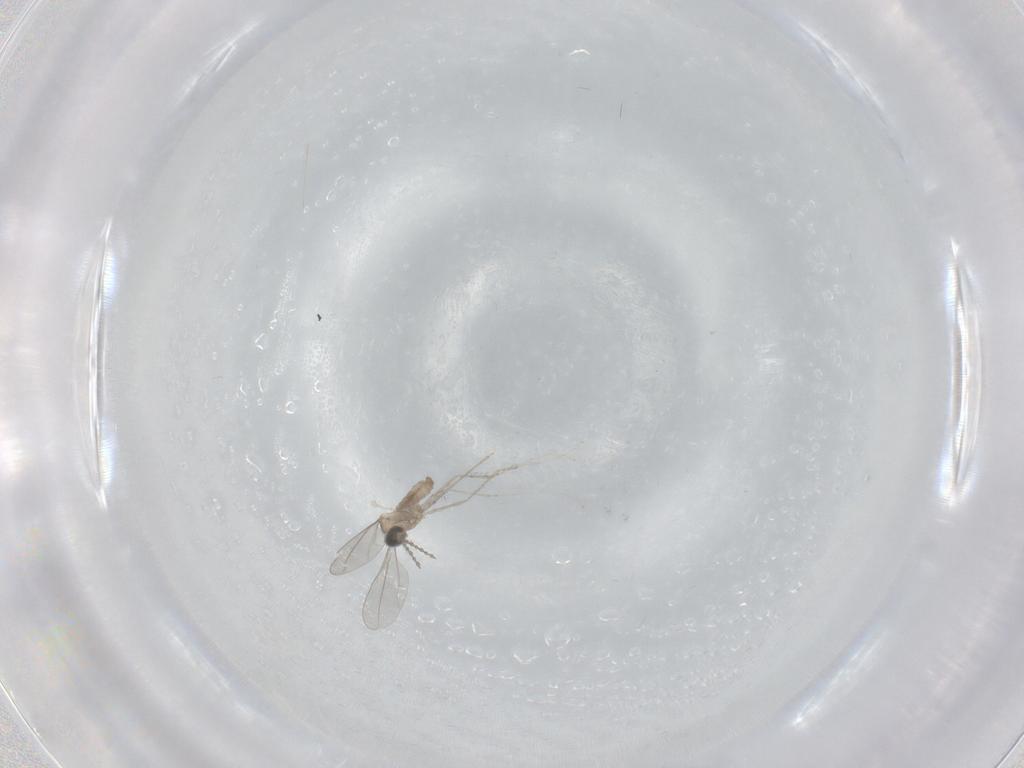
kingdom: Animalia
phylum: Arthropoda
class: Insecta
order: Diptera
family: Cecidomyiidae
